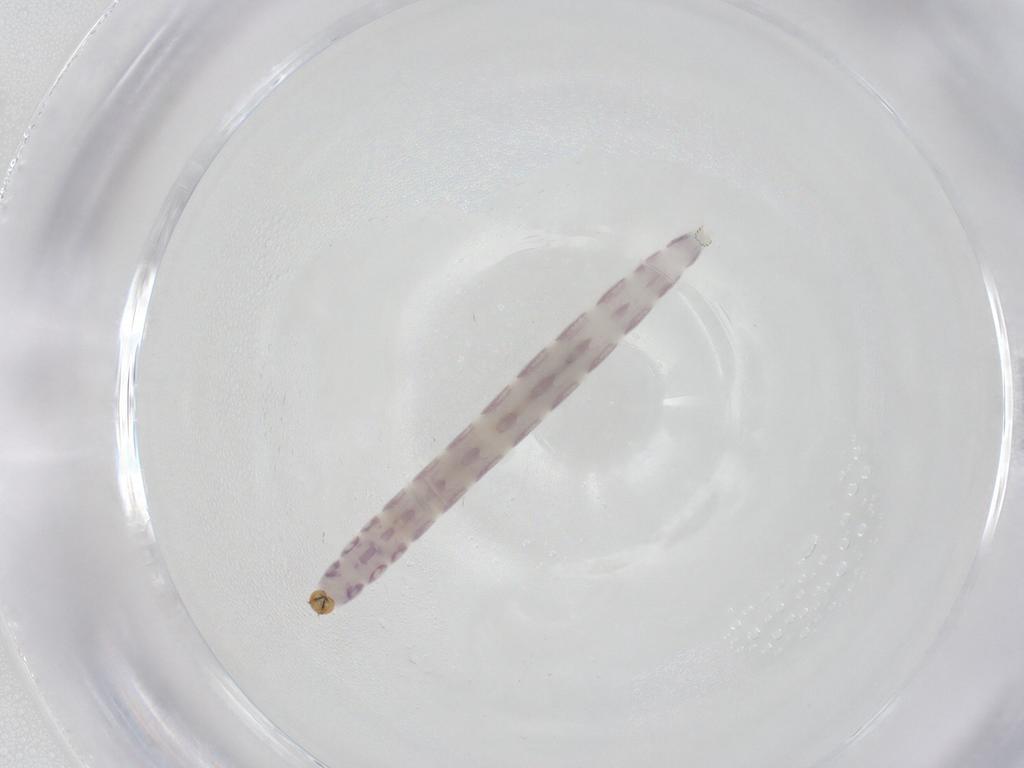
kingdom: Animalia
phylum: Arthropoda
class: Insecta
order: Diptera
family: Chironomidae
